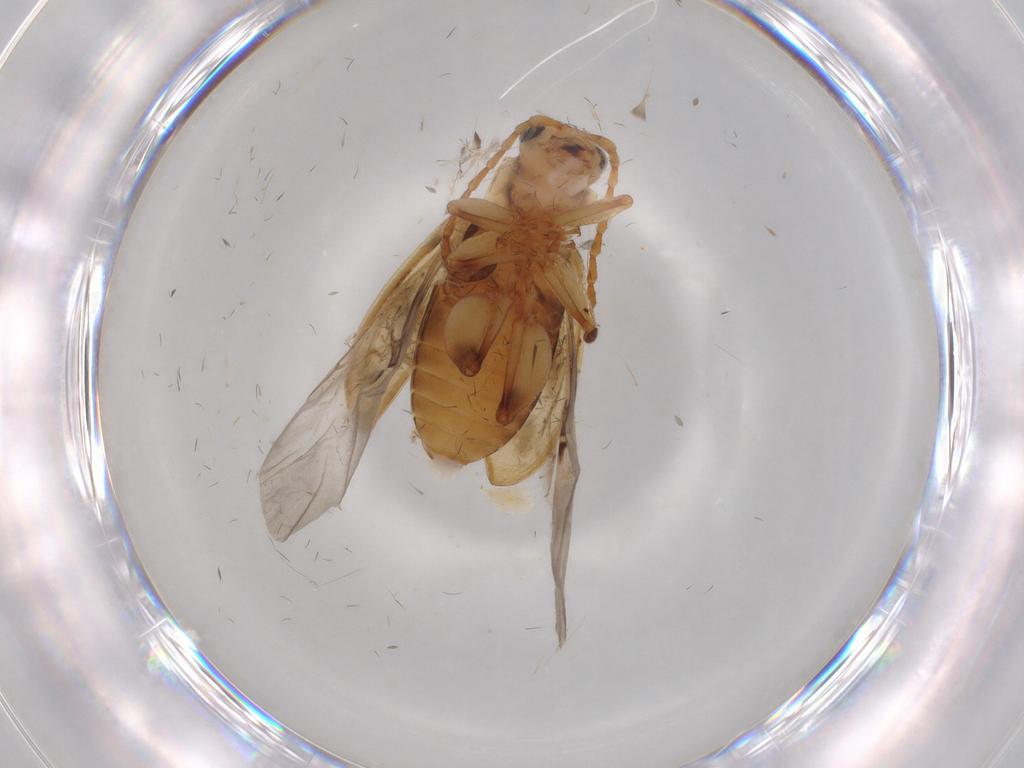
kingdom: Animalia
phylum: Arthropoda
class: Insecta
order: Coleoptera
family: Chrysomelidae
